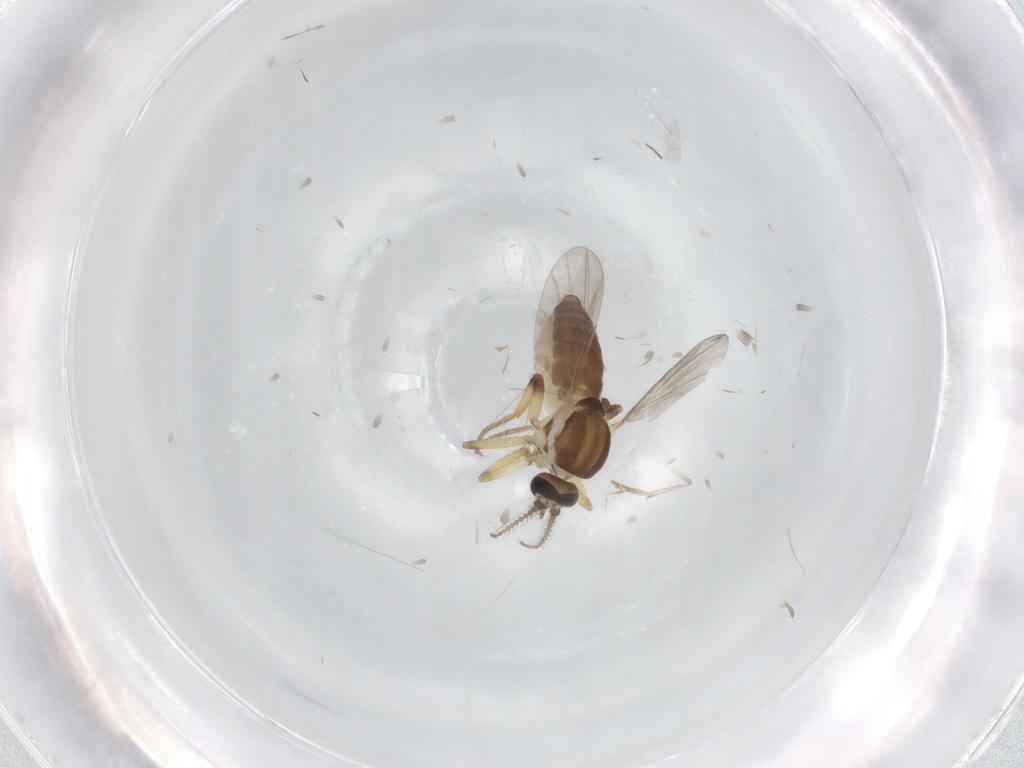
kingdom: Animalia
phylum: Arthropoda
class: Insecta
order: Diptera
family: Ceratopogonidae
